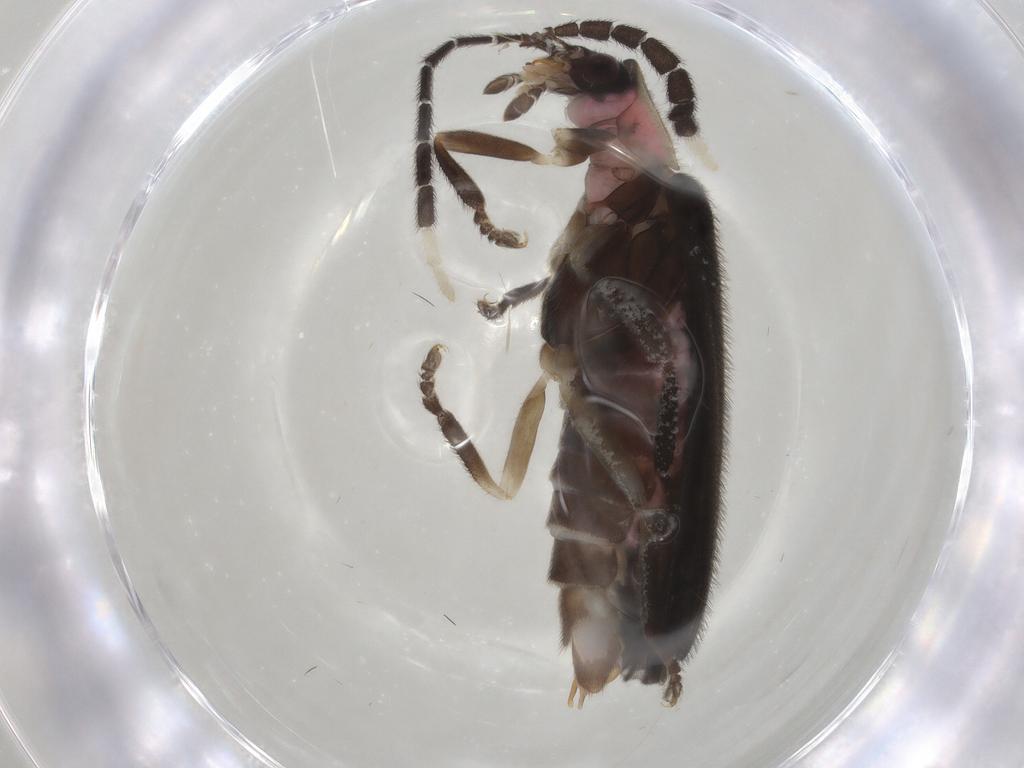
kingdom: Animalia
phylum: Arthropoda
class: Insecta
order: Coleoptera
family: Lampyridae
